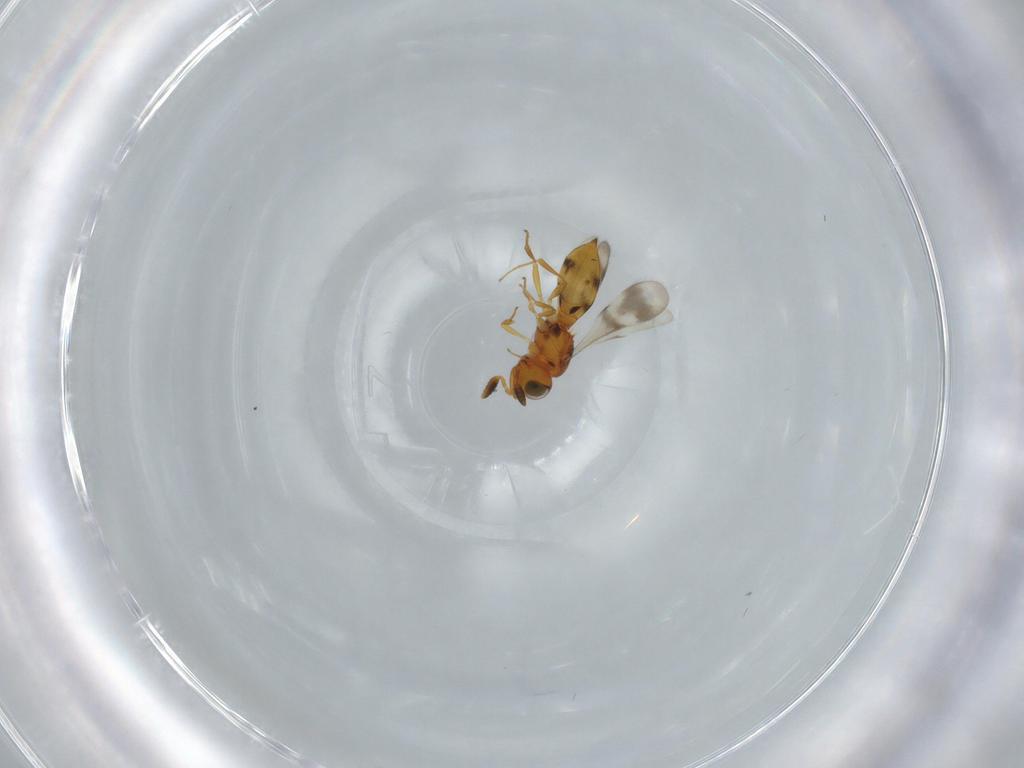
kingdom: Animalia
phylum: Arthropoda
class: Insecta
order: Hymenoptera
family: Scelionidae
